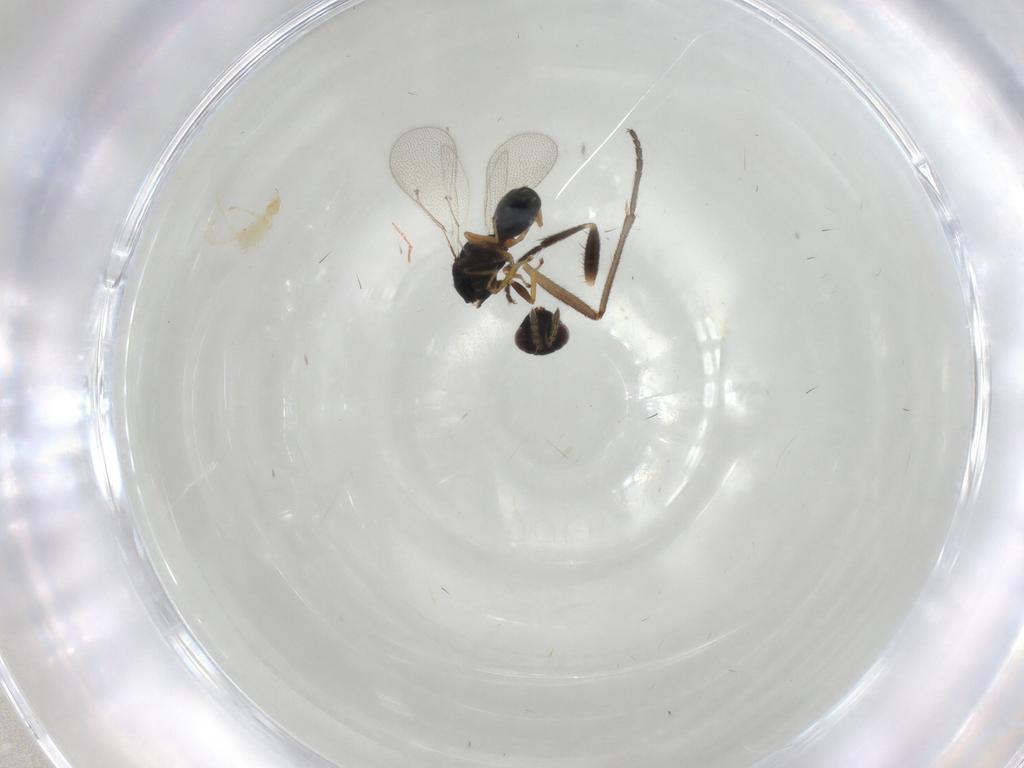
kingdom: Animalia
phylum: Arthropoda
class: Insecta
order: Hymenoptera
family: Eulophidae
